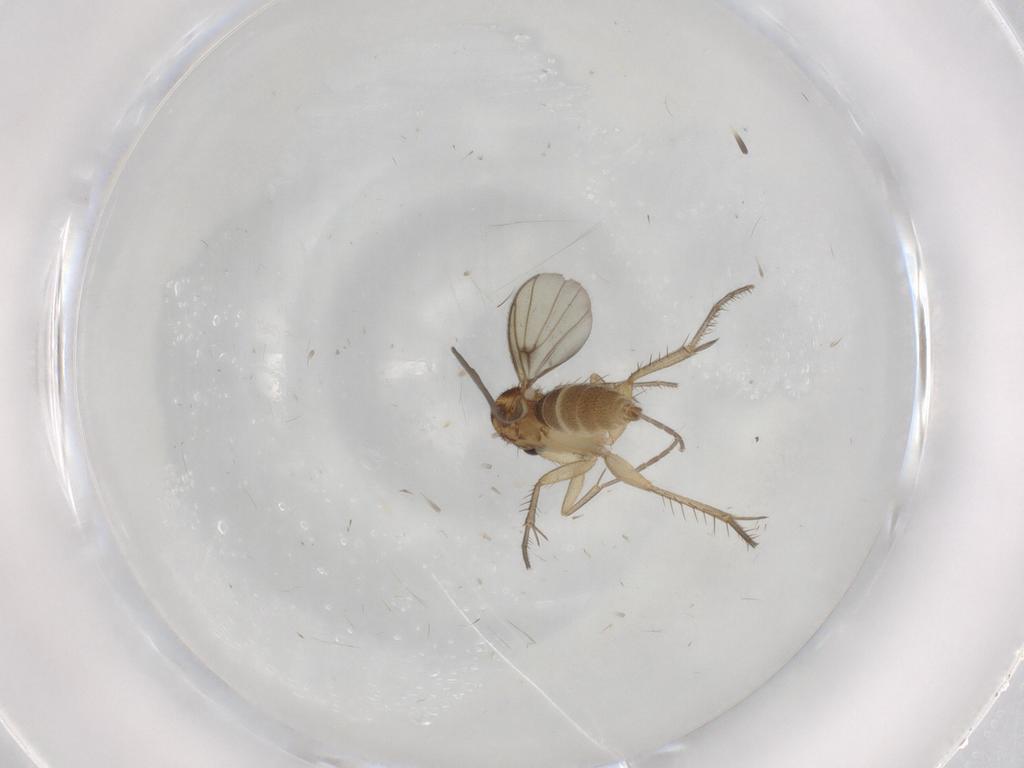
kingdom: Animalia
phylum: Arthropoda
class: Insecta
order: Diptera
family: Mycetophilidae
